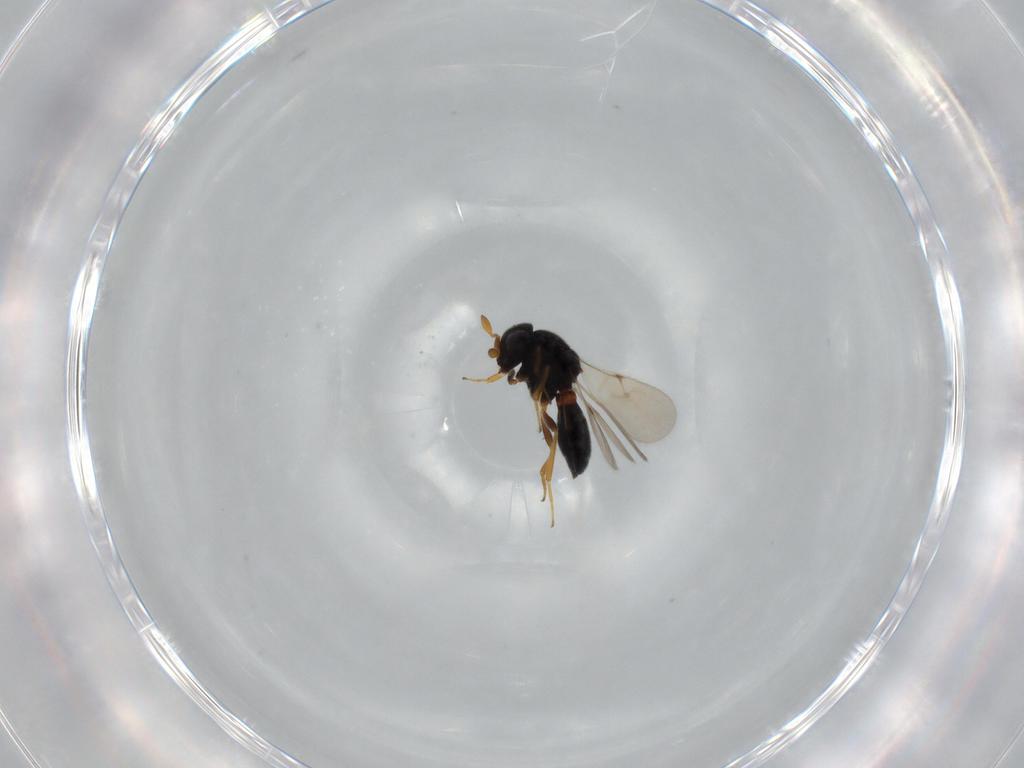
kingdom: Animalia
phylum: Arthropoda
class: Insecta
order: Hymenoptera
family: Scelionidae
